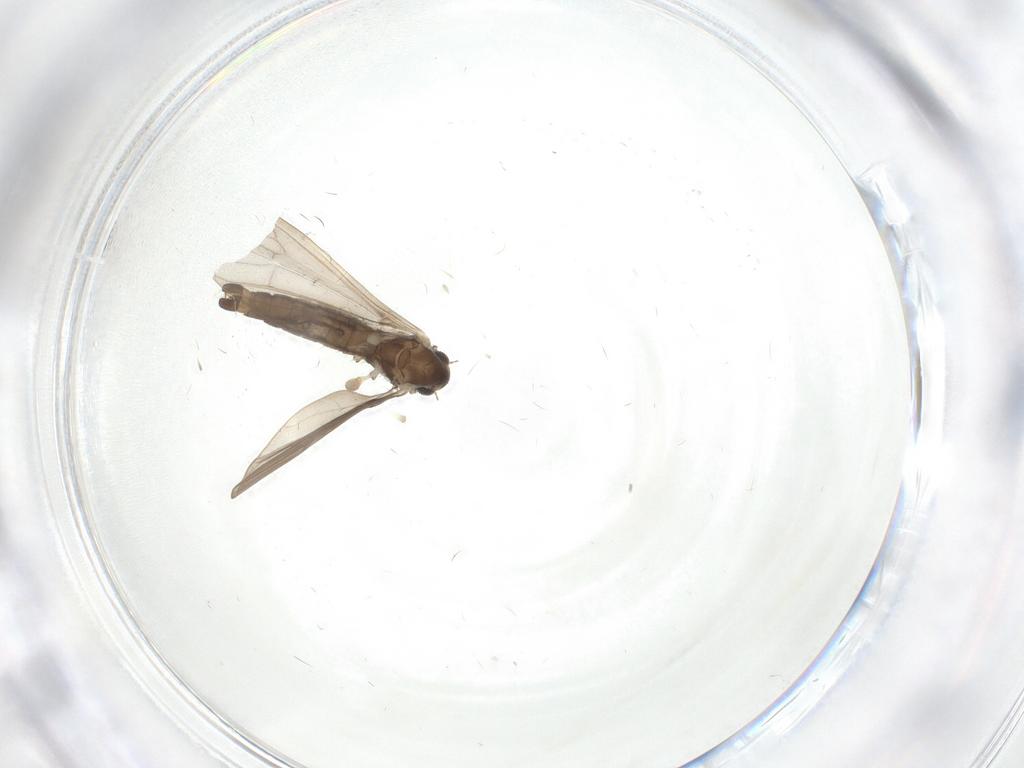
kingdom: Animalia
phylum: Arthropoda
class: Insecta
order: Diptera
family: Limoniidae
